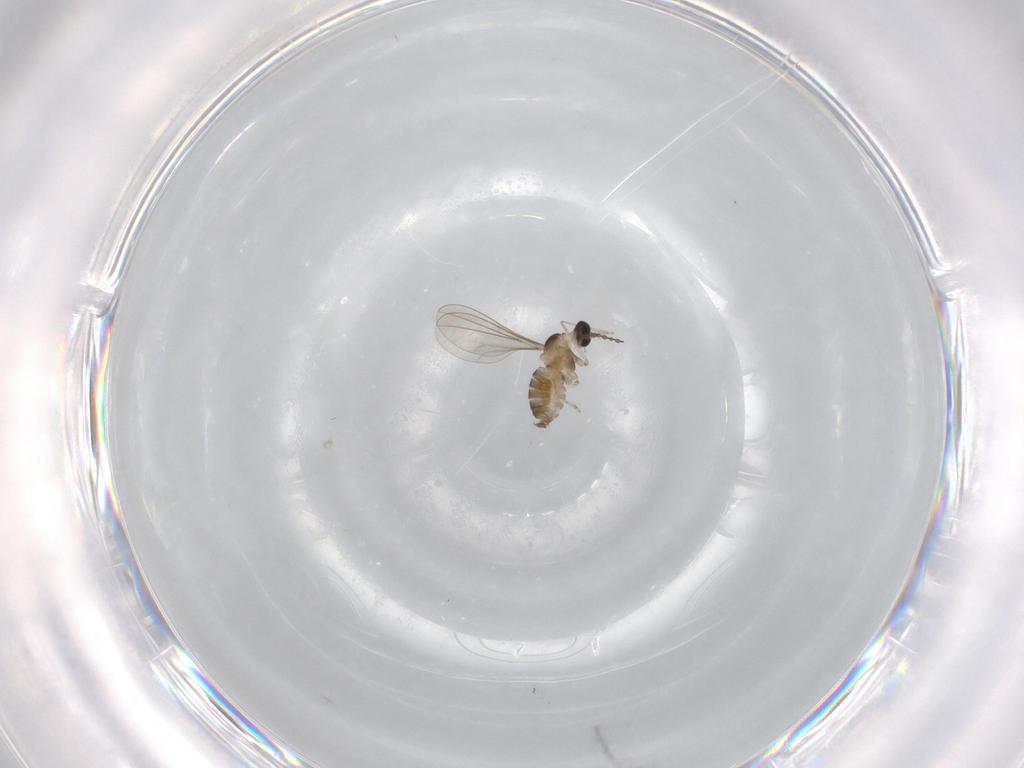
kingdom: Animalia
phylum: Arthropoda
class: Insecta
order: Diptera
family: Cecidomyiidae
